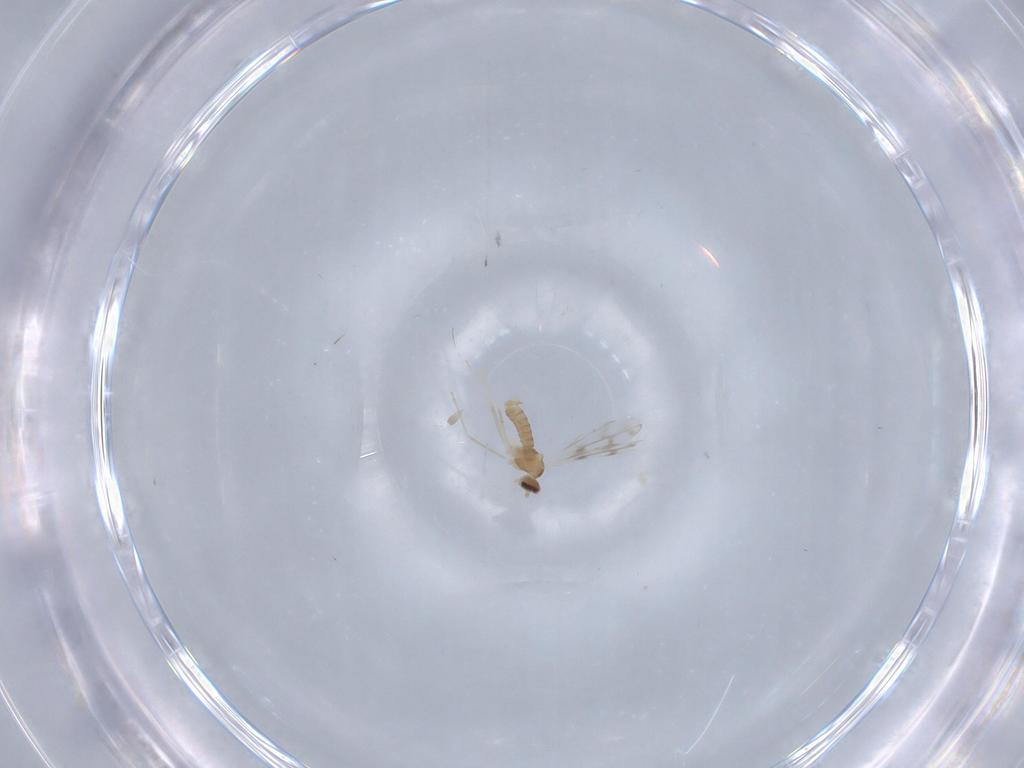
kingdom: Animalia
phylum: Arthropoda
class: Insecta
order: Diptera
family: Cecidomyiidae
